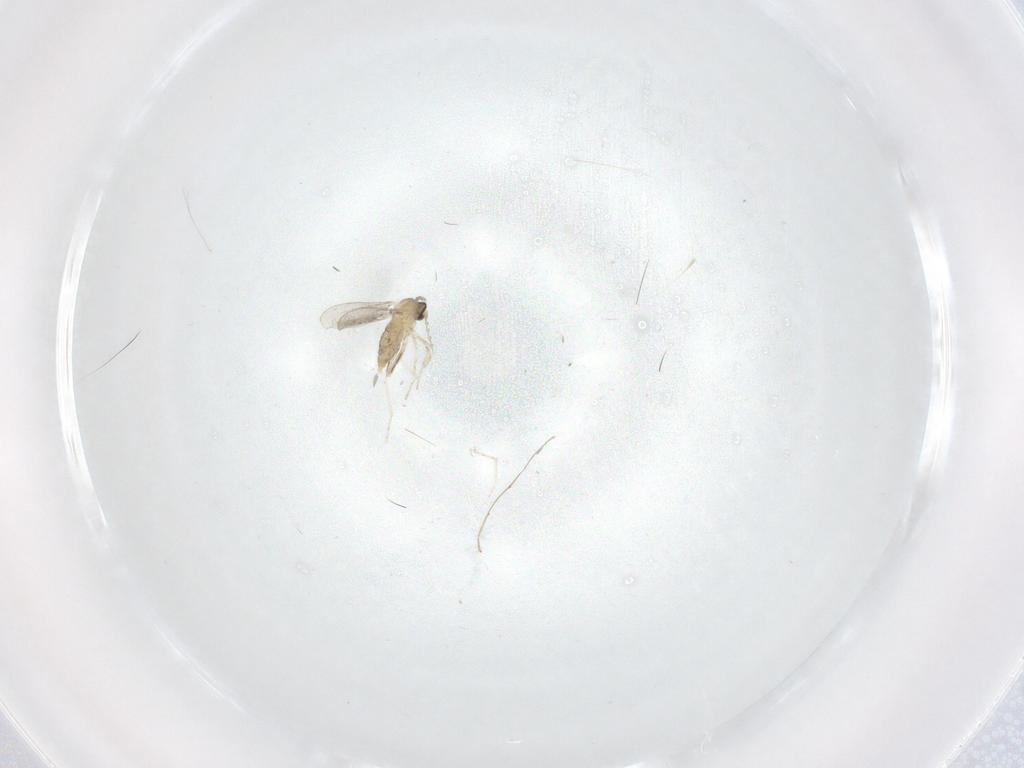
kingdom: Animalia
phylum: Arthropoda
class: Insecta
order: Diptera
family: Cecidomyiidae
